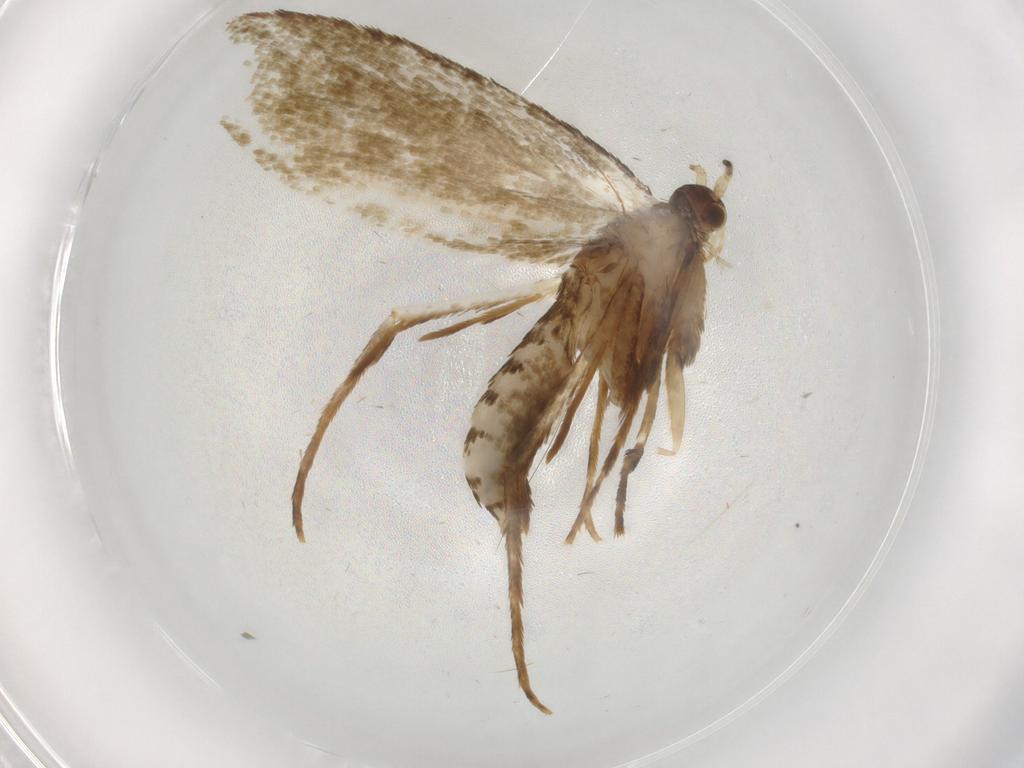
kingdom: Animalia
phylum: Arthropoda
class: Insecta
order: Lepidoptera
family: Tineidae
